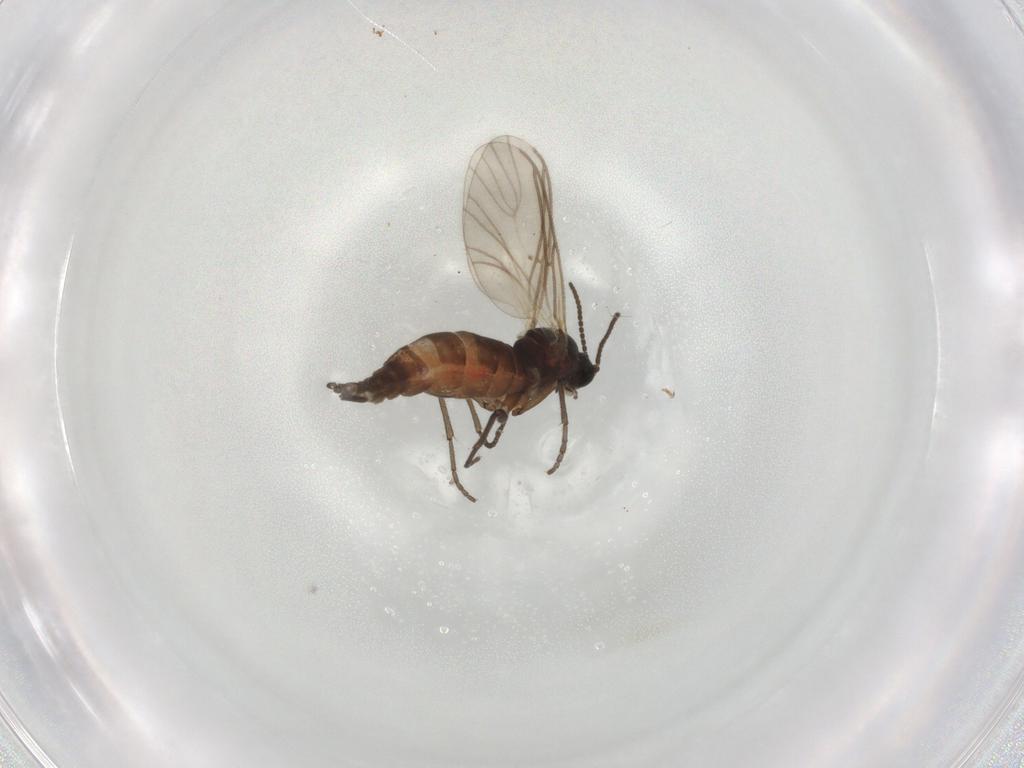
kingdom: Animalia
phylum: Arthropoda
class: Insecta
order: Diptera
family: Sciaridae
